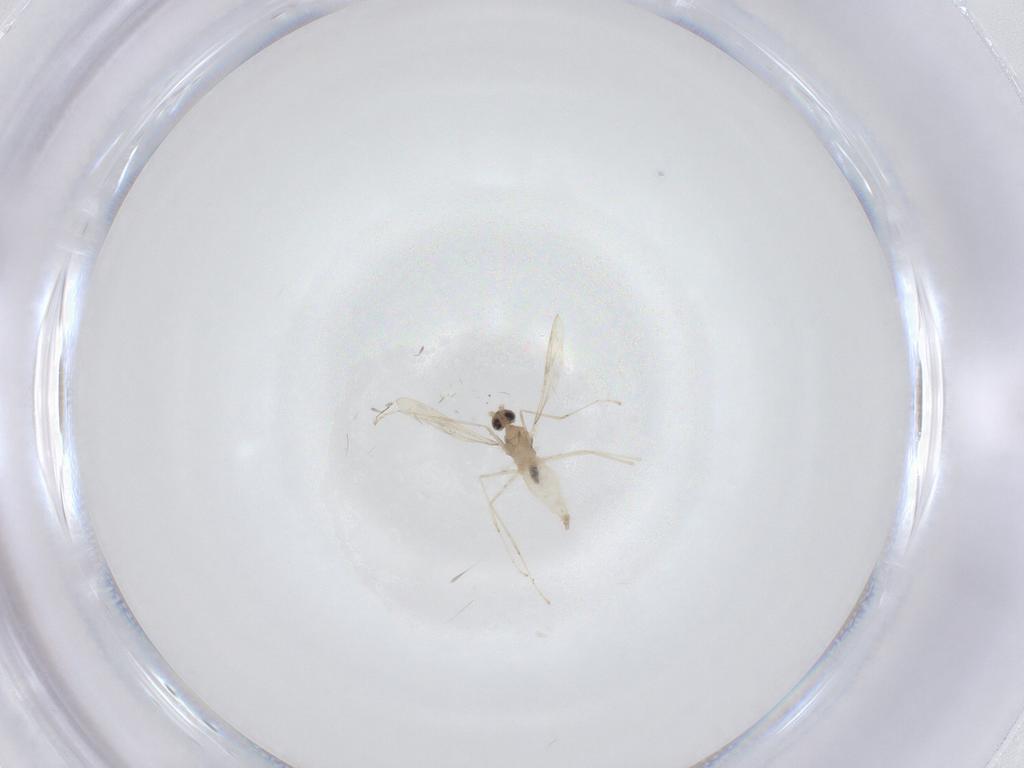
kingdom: Animalia
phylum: Arthropoda
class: Insecta
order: Diptera
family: Cecidomyiidae
